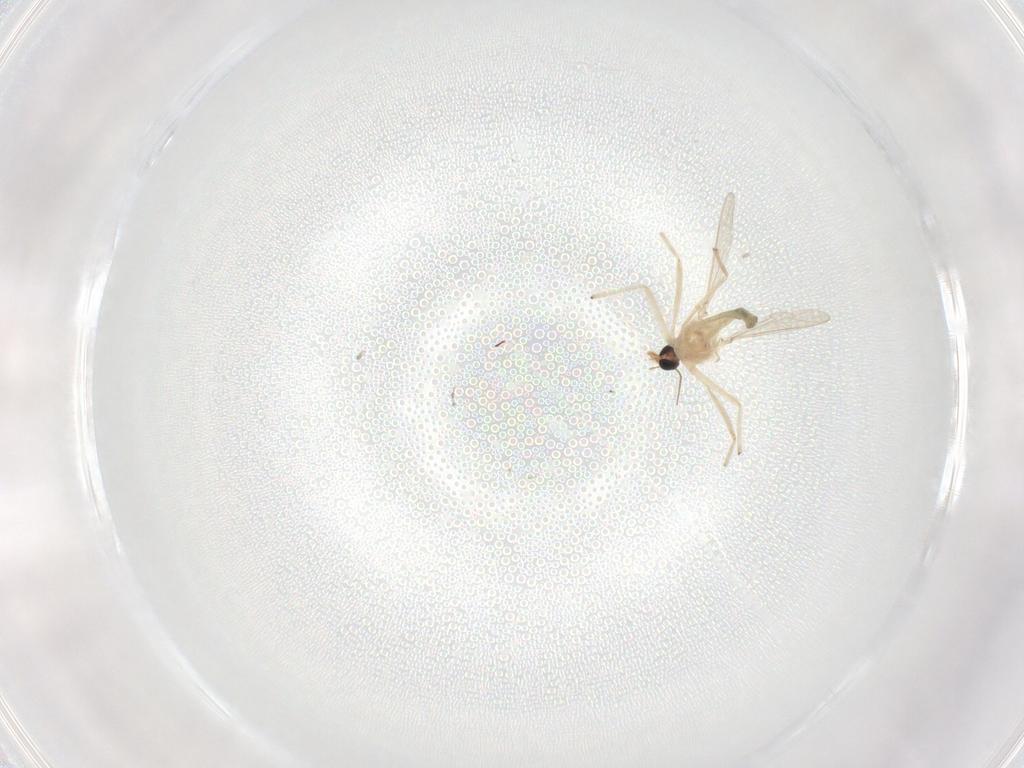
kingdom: Animalia
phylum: Arthropoda
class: Insecta
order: Diptera
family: Chironomidae
